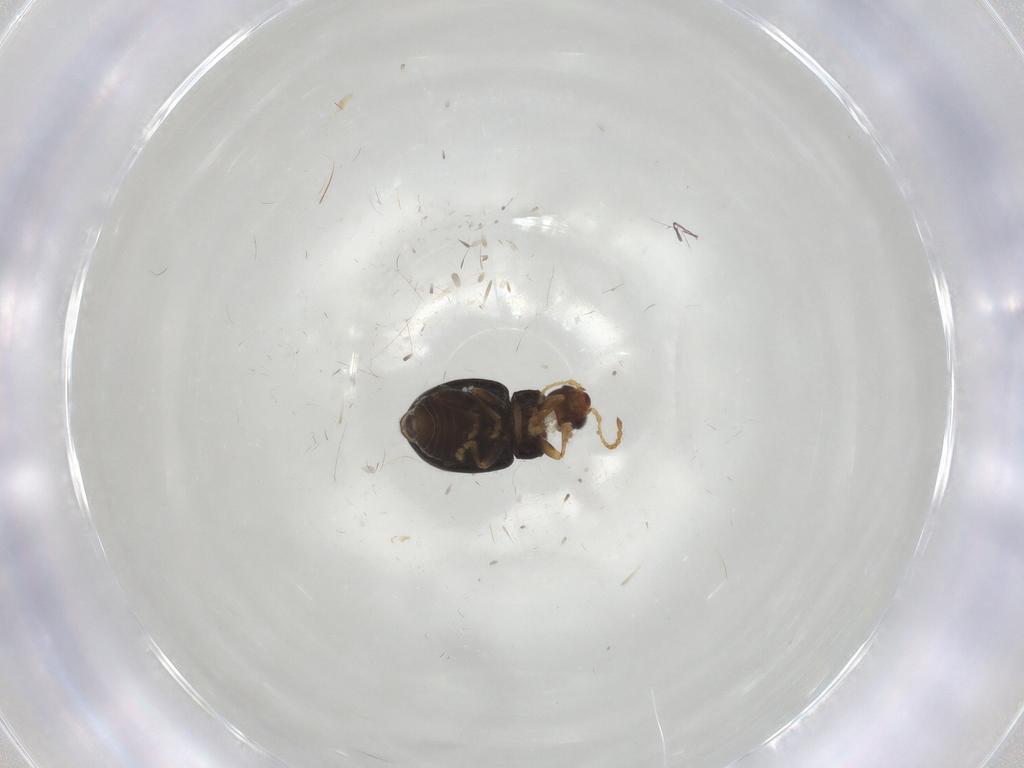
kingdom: Animalia
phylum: Arthropoda
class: Insecta
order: Coleoptera
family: Chrysomelidae
